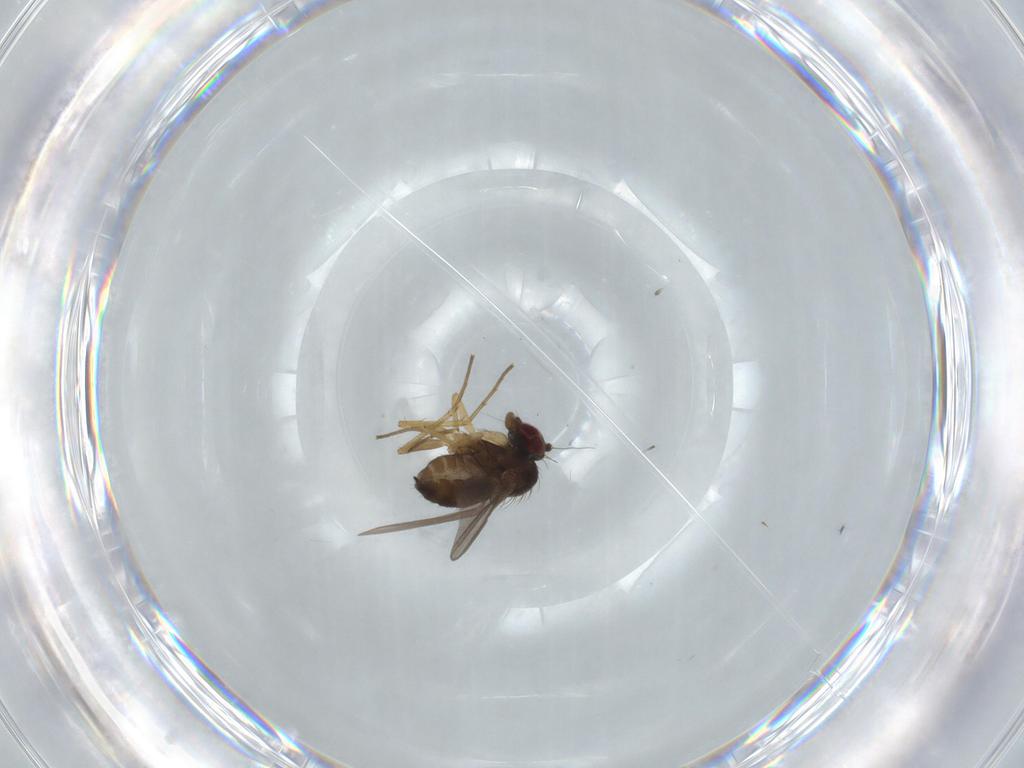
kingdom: Animalia
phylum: Arthropoda
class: Insecta
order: Diptera
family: Dolichopodidae
